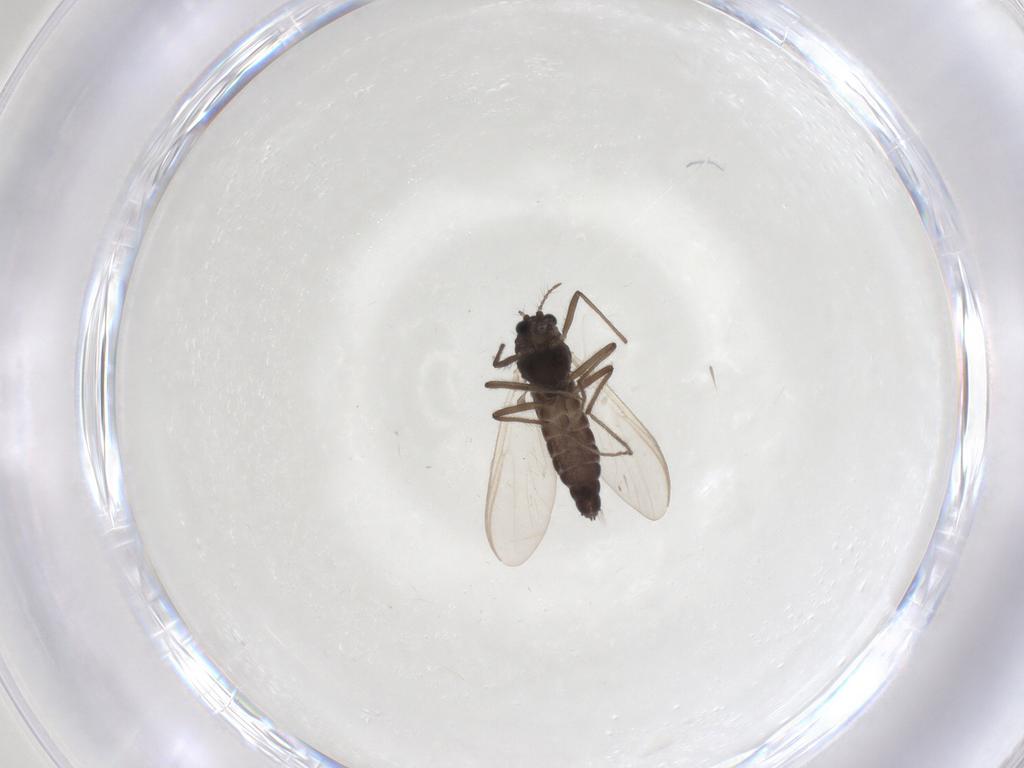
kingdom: Animalia
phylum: Arthropoda
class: Insecta
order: Diptera
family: Chironomidae
